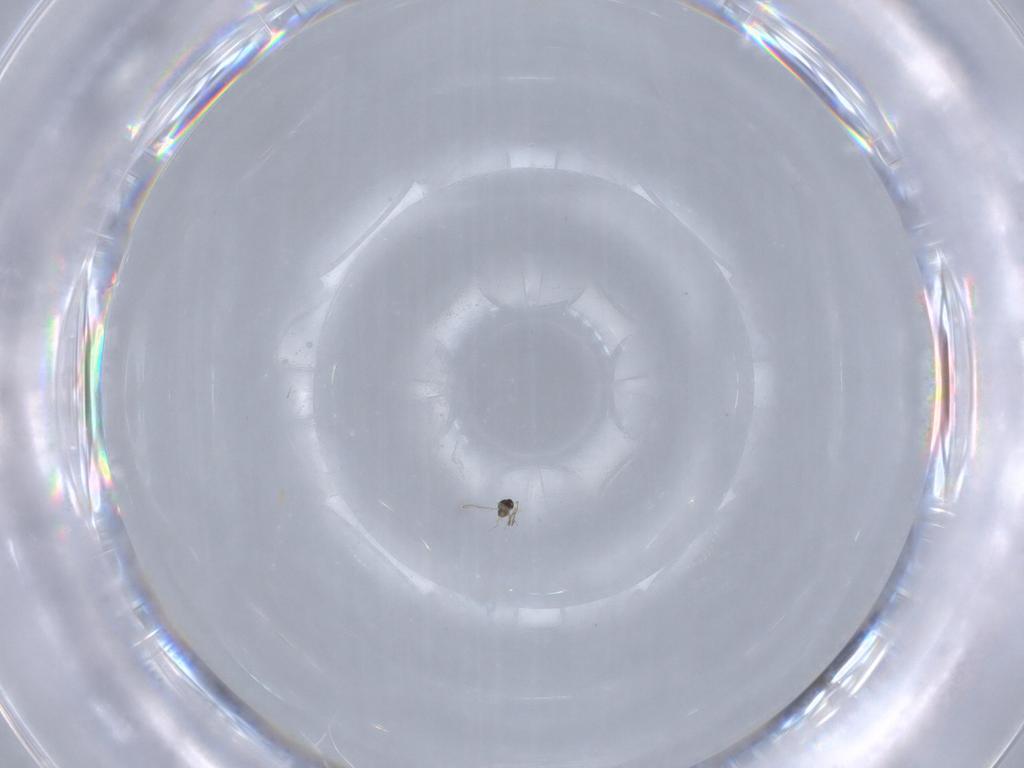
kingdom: Animalia
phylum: Arthropoda
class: Insecta
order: Hymenoptera
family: Mymaridae
